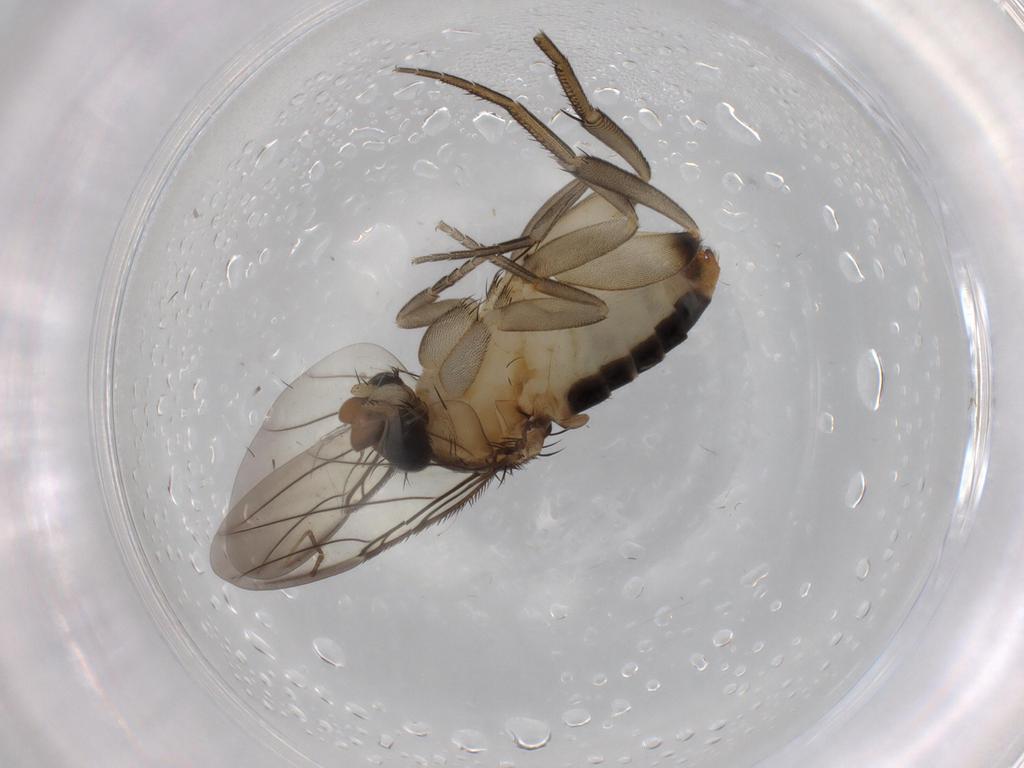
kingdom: Animalia
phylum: Arthropoda
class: Insecta
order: Diptera
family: Phoridae
